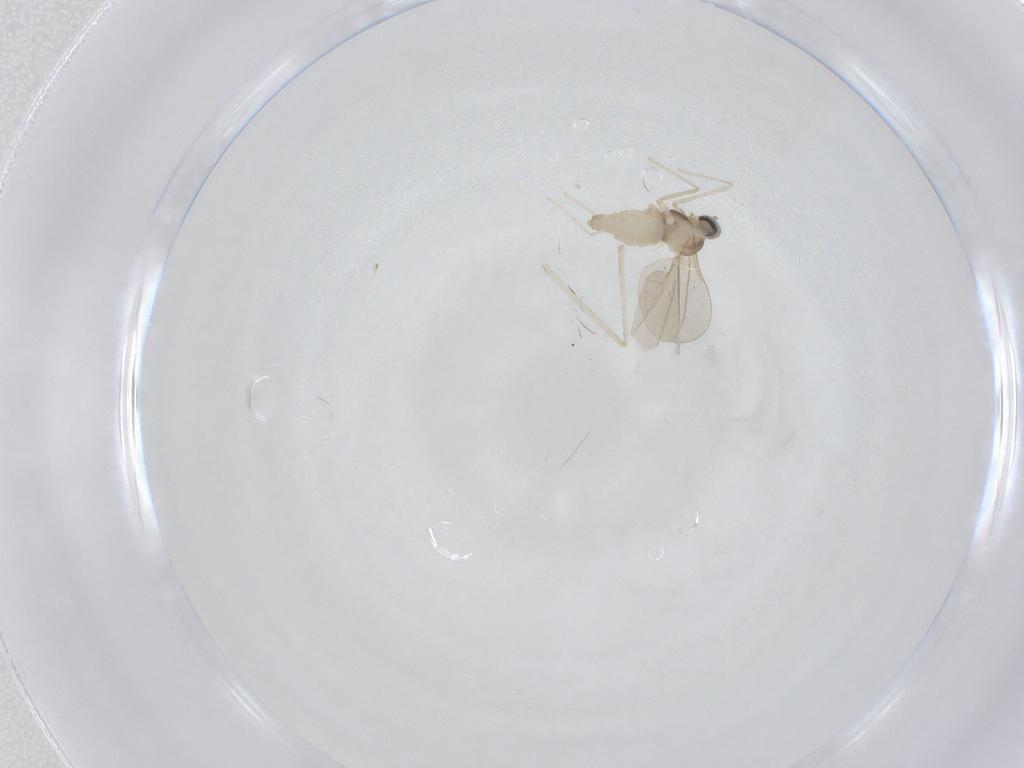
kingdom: Animalia
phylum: Arthropoda
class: Insecta
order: Diptera
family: Cecidomyiidae
